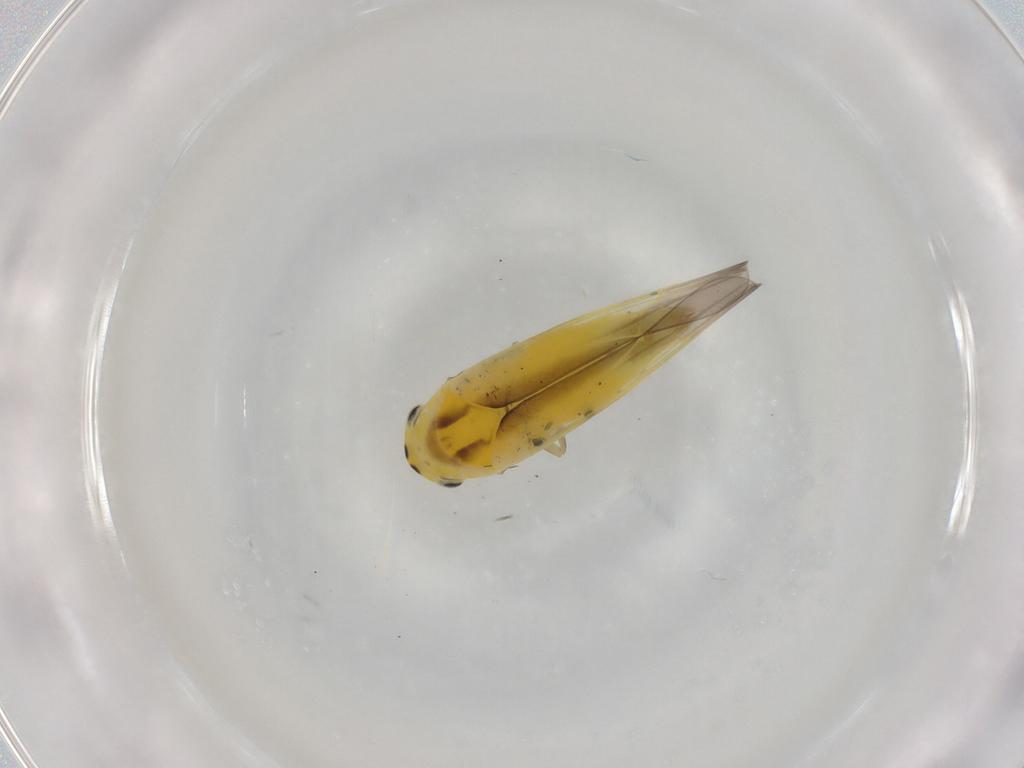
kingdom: Animalia
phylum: Arthropoda
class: Insecta
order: Hemiptera
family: Cicadellidae
